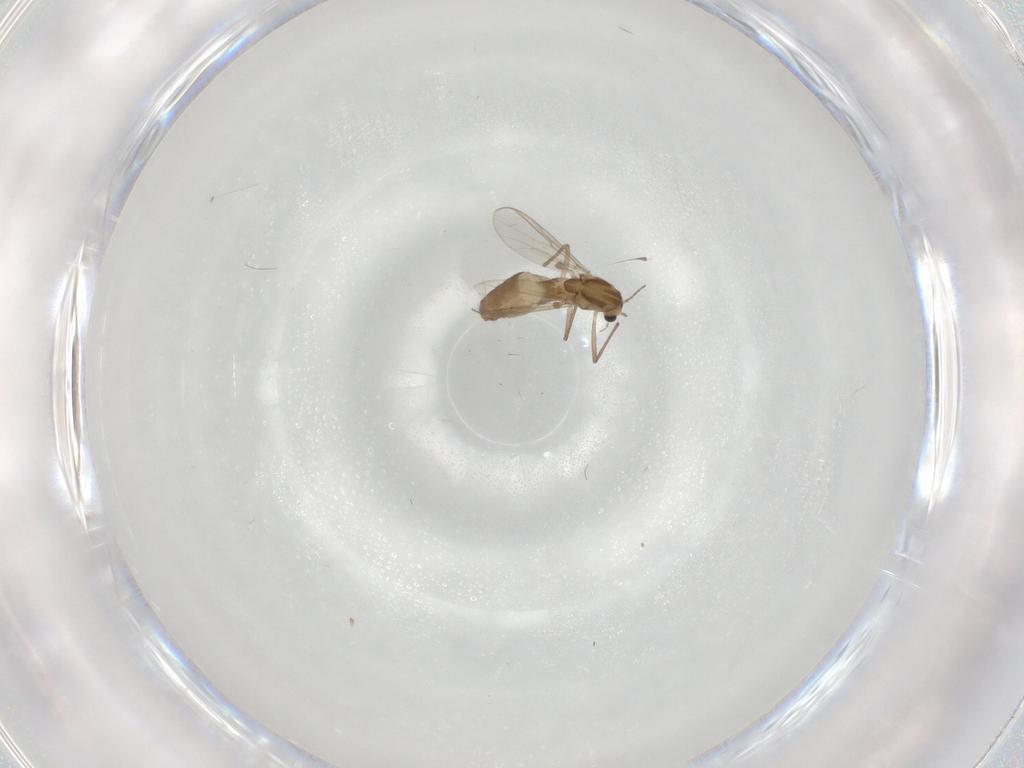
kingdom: Animalia
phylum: Arthropoda
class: Insecta
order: Diptera
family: Chironomidae
